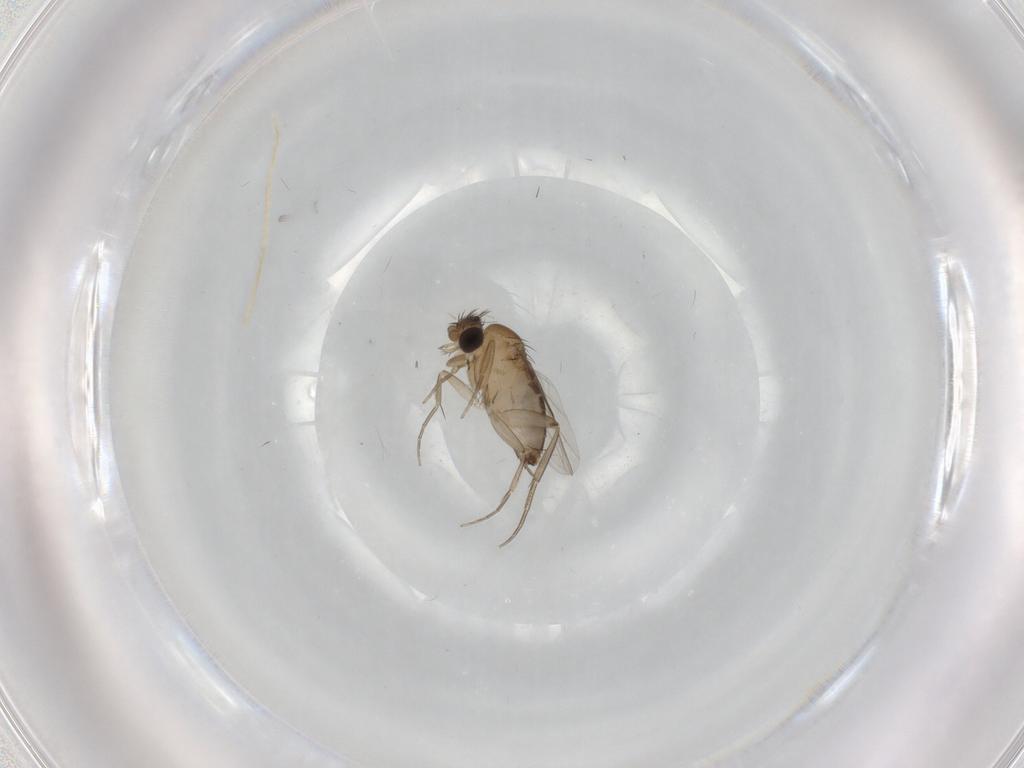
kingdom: Animalia
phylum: Arthropoda
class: Insecta
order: Diptera
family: Phoridae
